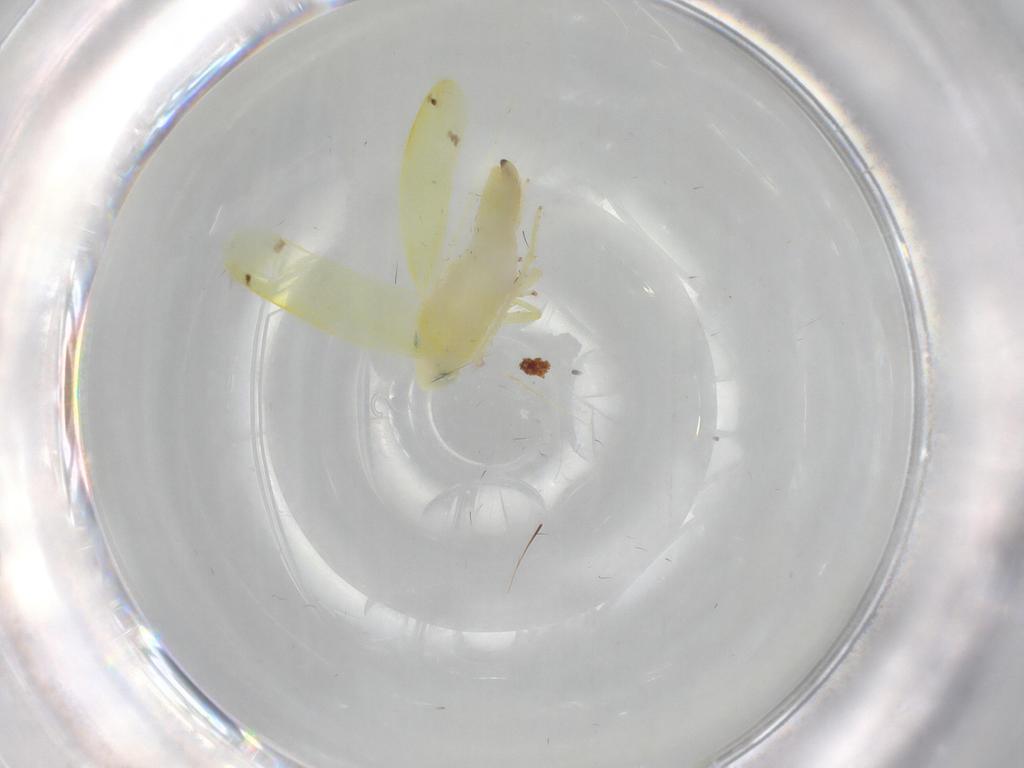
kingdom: Animalia
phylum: Arthropoda
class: Insecta
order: Hemiptera
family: Cicadellidae
